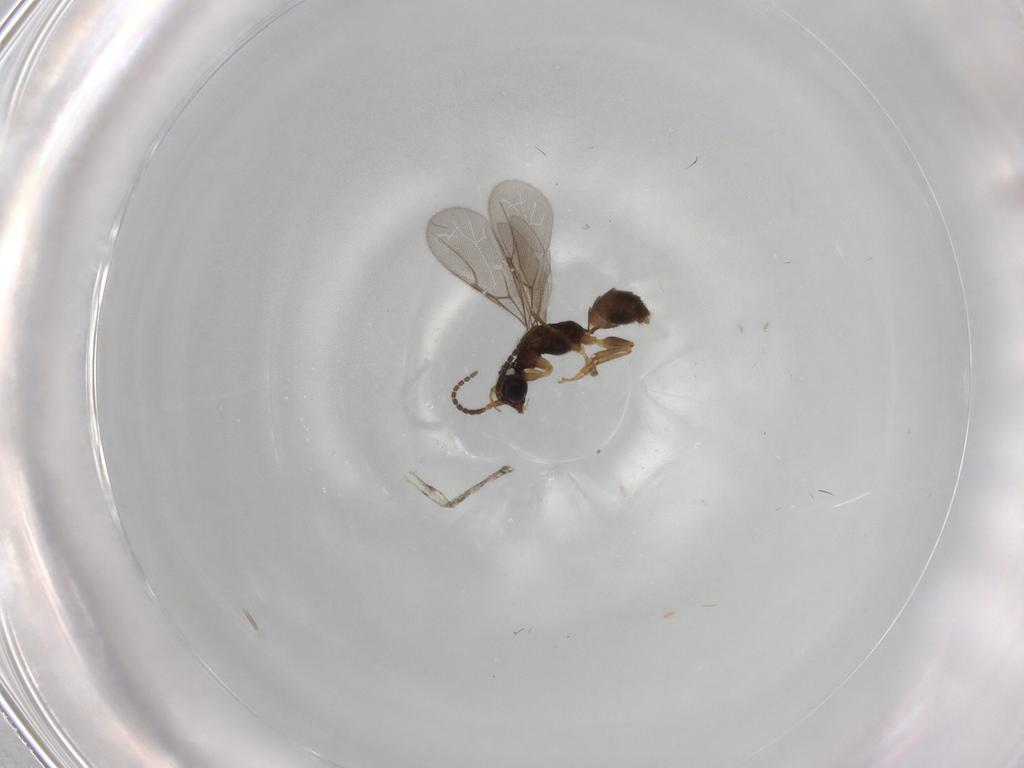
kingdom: Animalia
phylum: Arthropoda
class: Insecta
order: Hymenoptera
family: Bethylidae
